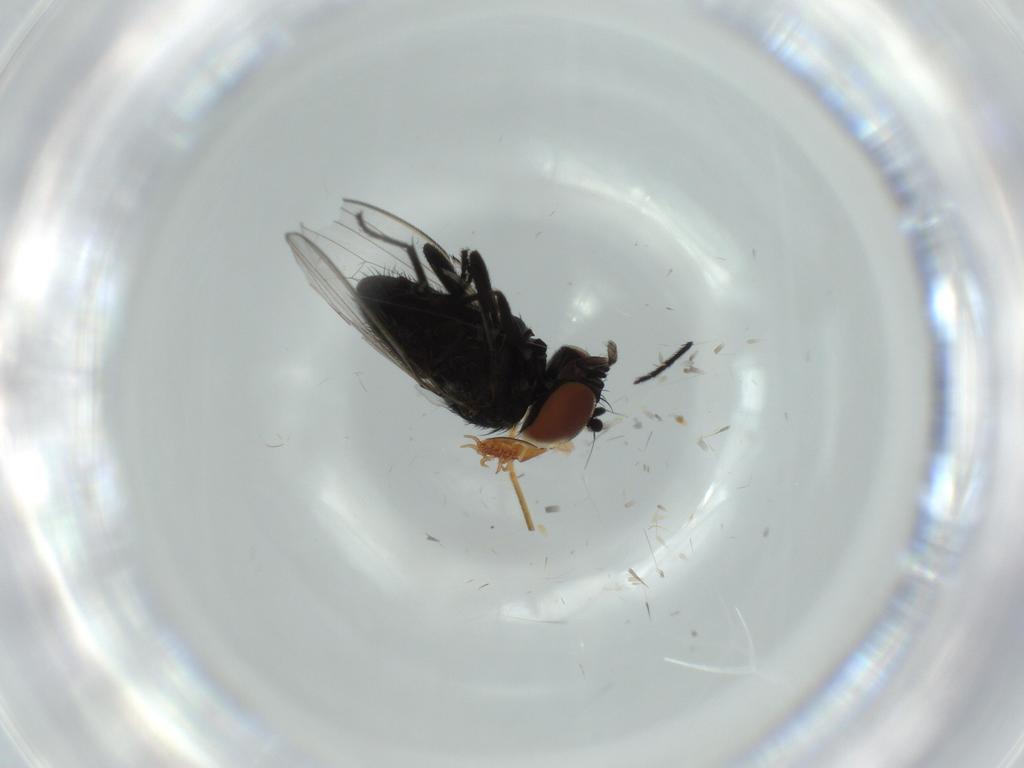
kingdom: Animalia
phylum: Arthropoda
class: Insecta
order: Diptera
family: Milichiidae
